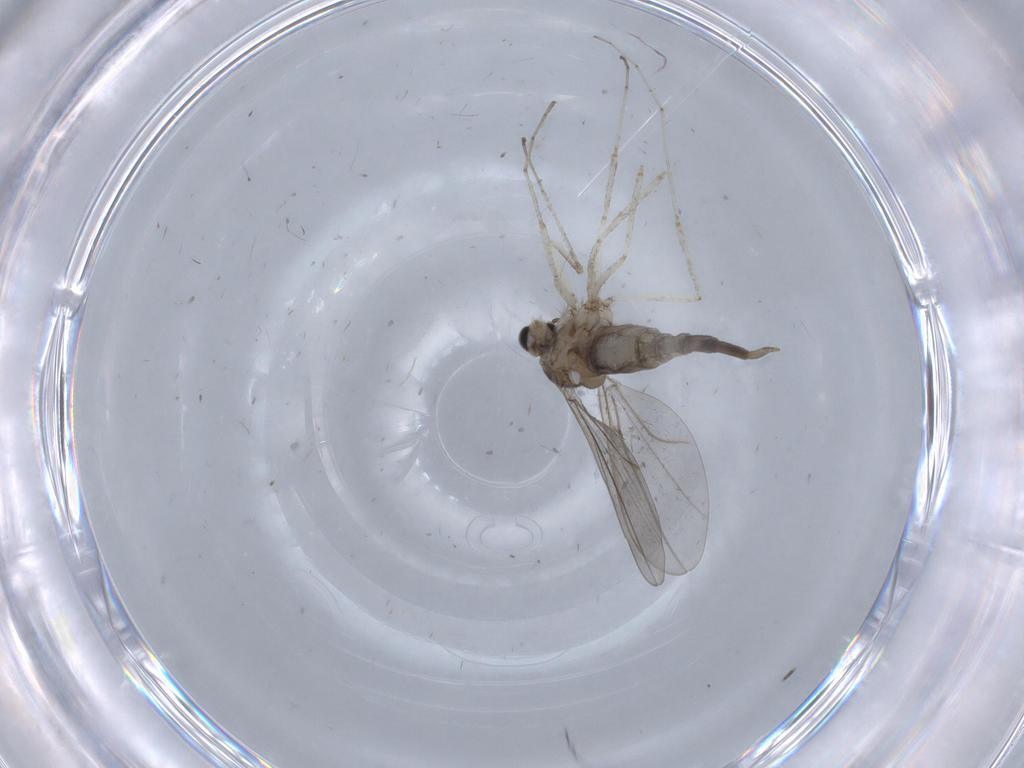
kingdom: Animalia
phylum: Arthropoda
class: Insecta
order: Diptera
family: Cecidomyiidae
